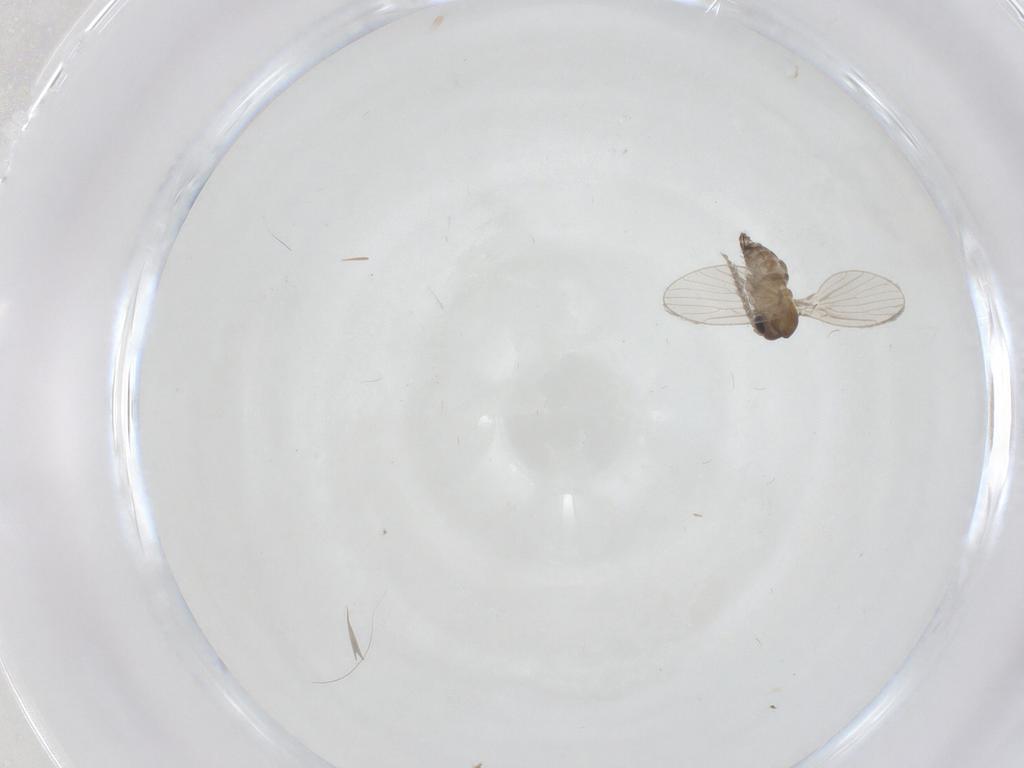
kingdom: Animalia
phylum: Arthropoda
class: Insecta
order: Diptera
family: Phoridae
